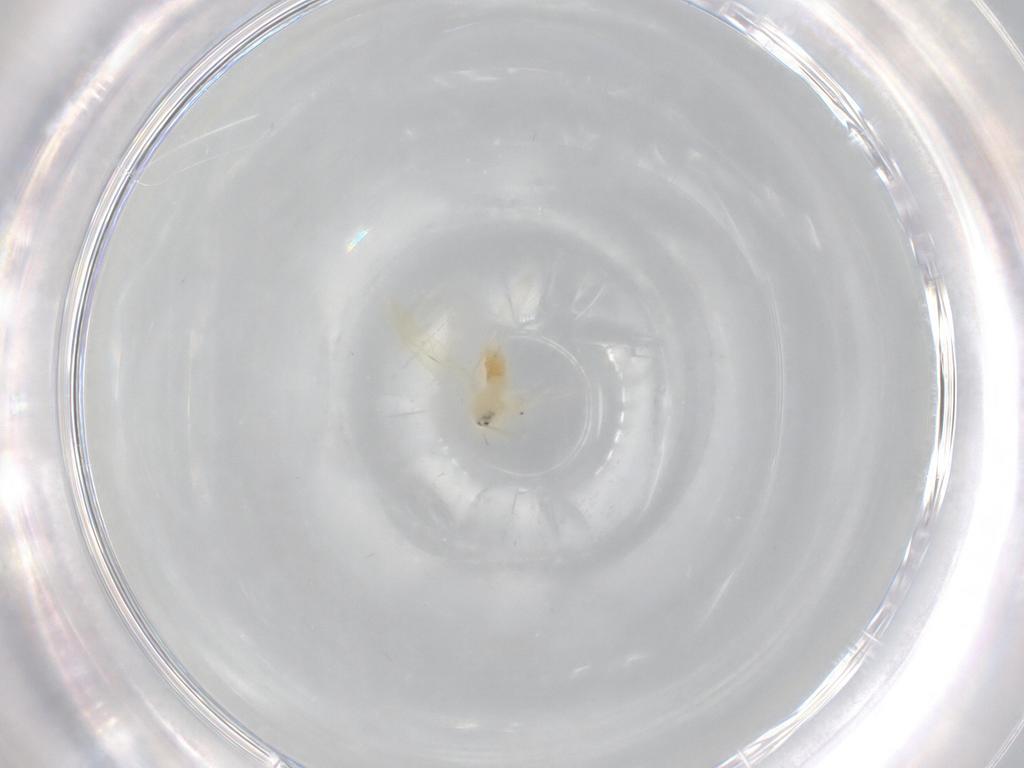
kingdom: Animalia
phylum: Arthropoda
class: Insecta
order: Hemiptera
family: Aleyrodidae
